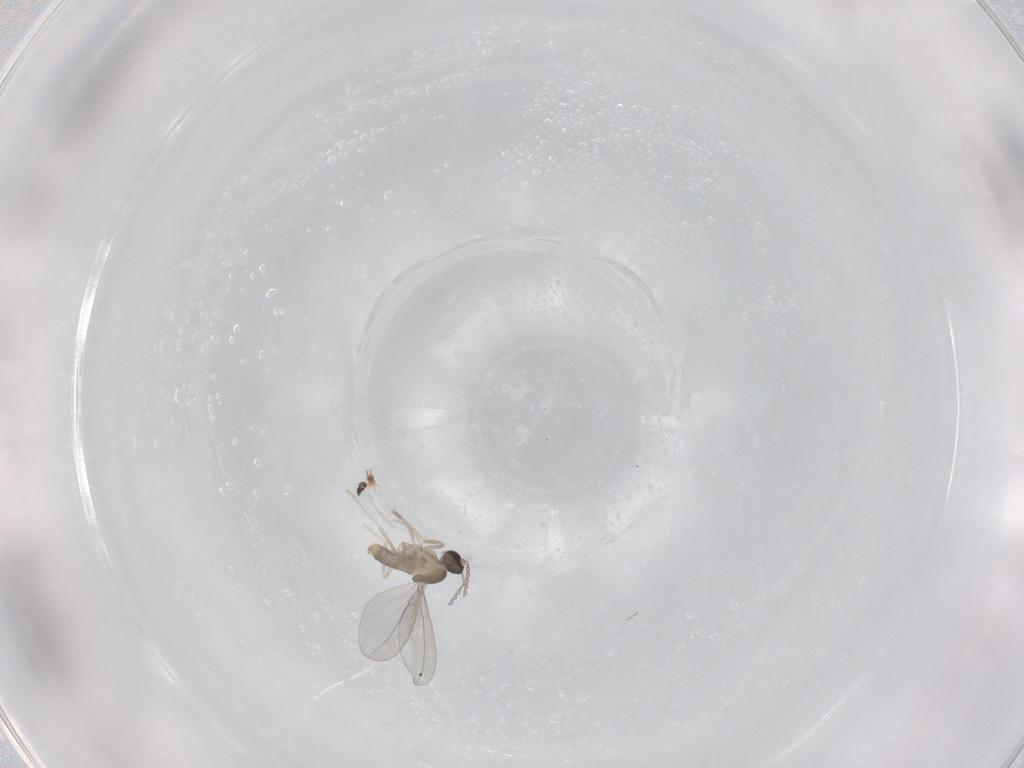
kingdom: Animalia
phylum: Arthropoda
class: Insecta
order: Diptera
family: Cecidomyiidae
